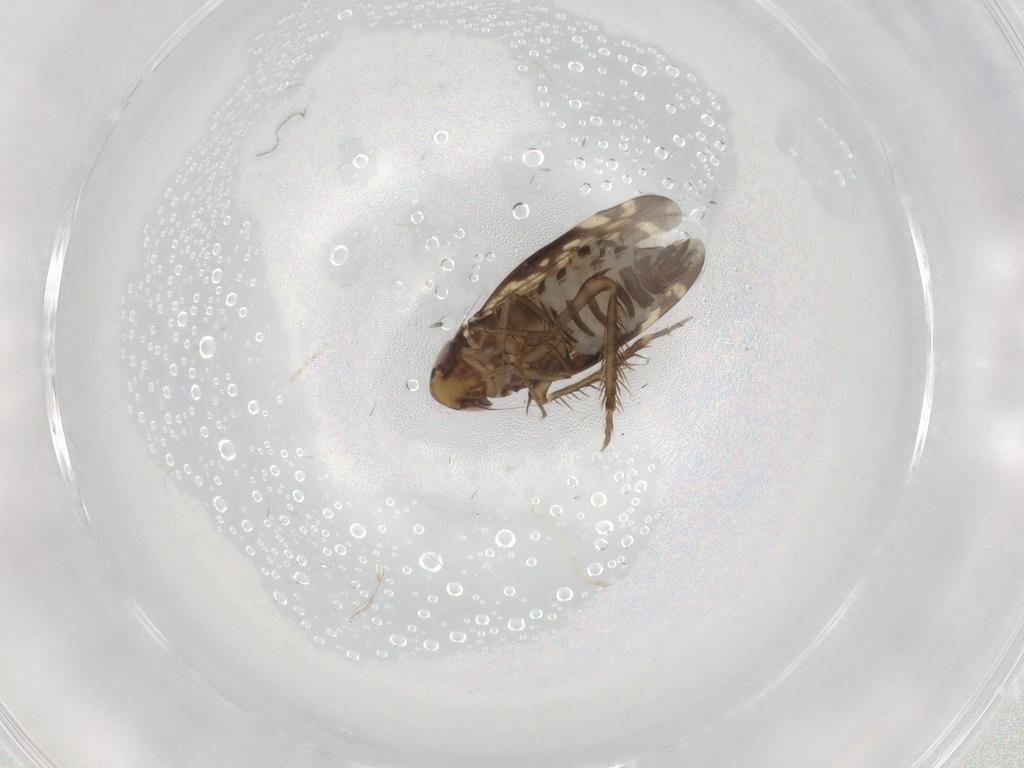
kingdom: Animalia
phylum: Arthropoda
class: Insecta
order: Hemiptera
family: Cicadellidae
